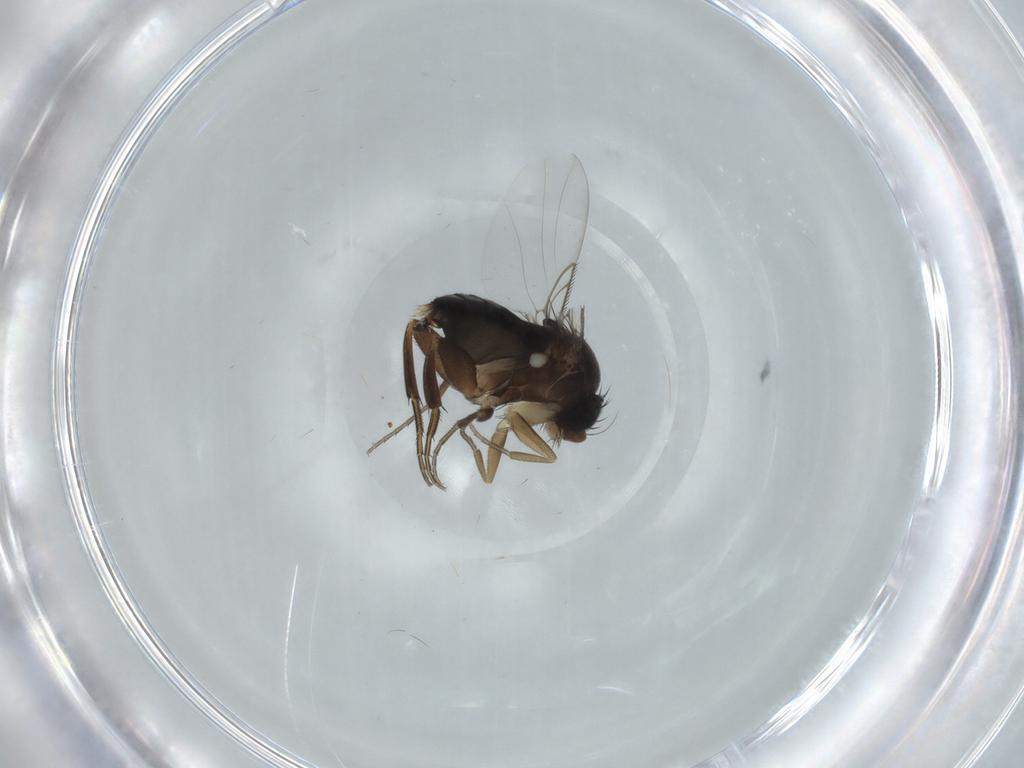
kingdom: Animalia
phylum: Arthropoda
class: Insecta
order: Diptera
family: Phoridae
